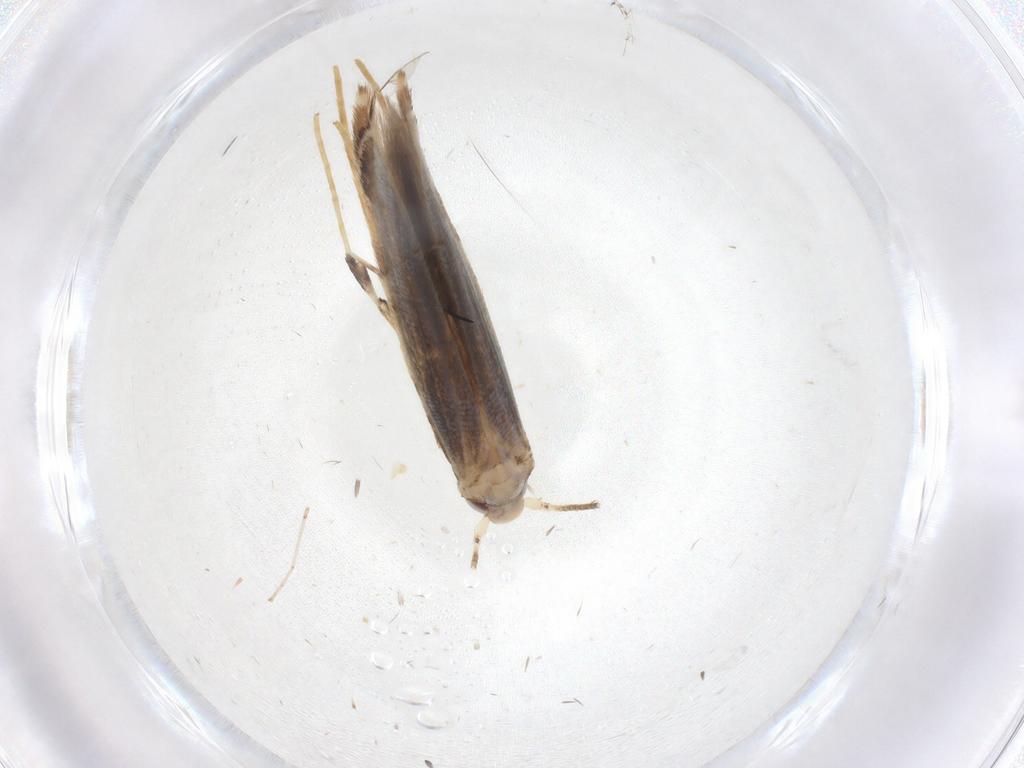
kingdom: Animalia
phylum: Arthropoda
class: Insecta
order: Lepidoptera
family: Gracillariidae
